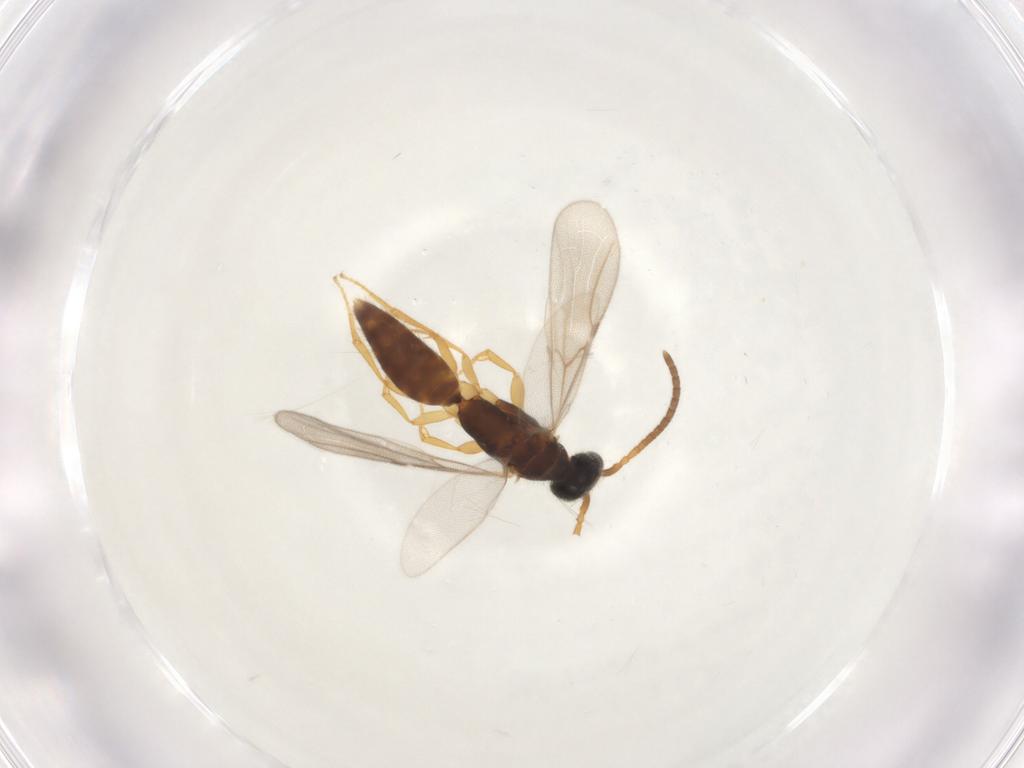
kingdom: Animalia
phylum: Arthropoda
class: Insecta
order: Hymenoptera
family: Bethylidae
